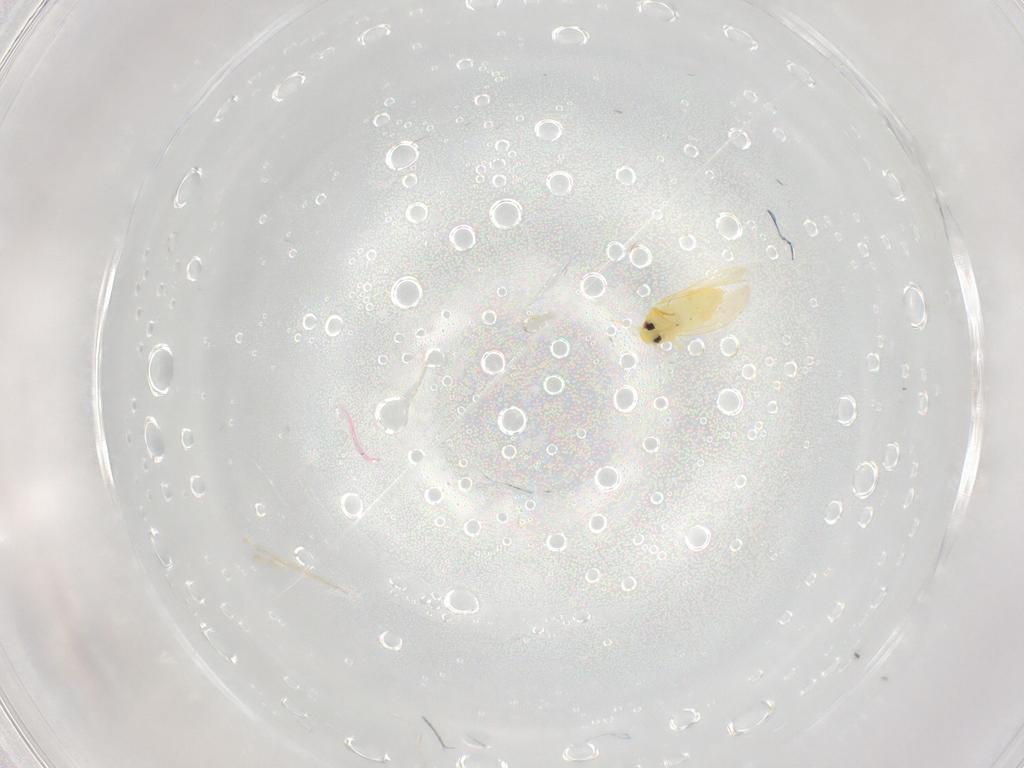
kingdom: Animalia
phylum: Arthropoda
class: Insecta
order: Hemiptera
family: Aleyrodidae
